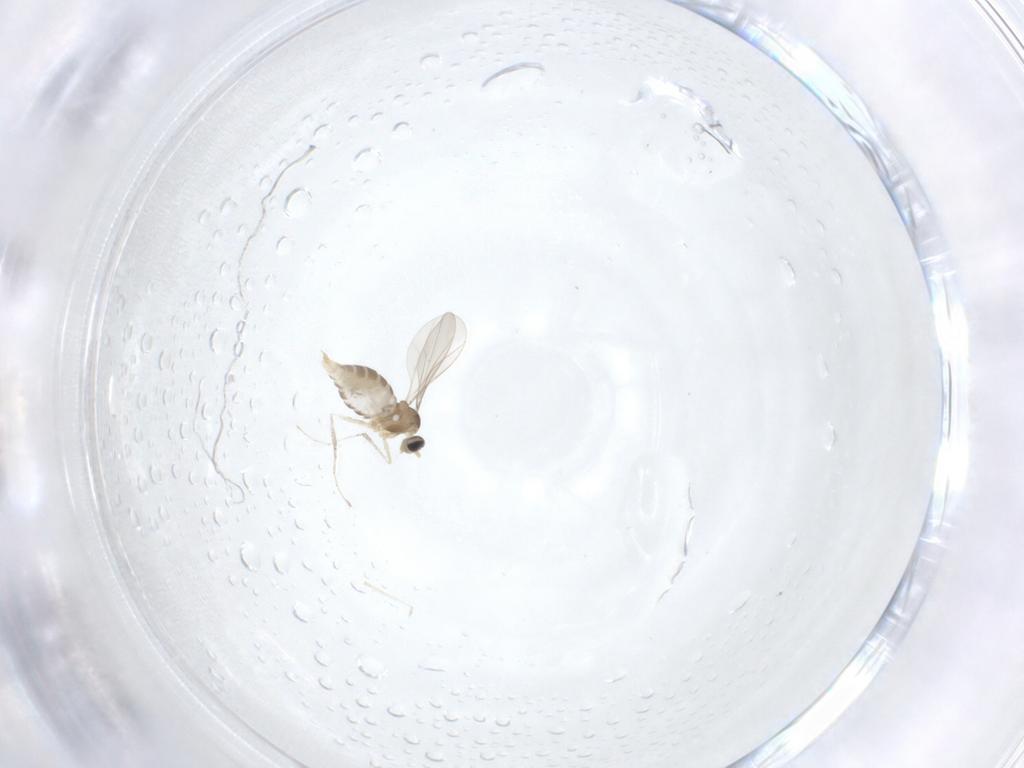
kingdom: Animalia
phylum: Arthropoda
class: Insecta
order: Diptera
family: Cecidomyiidae
